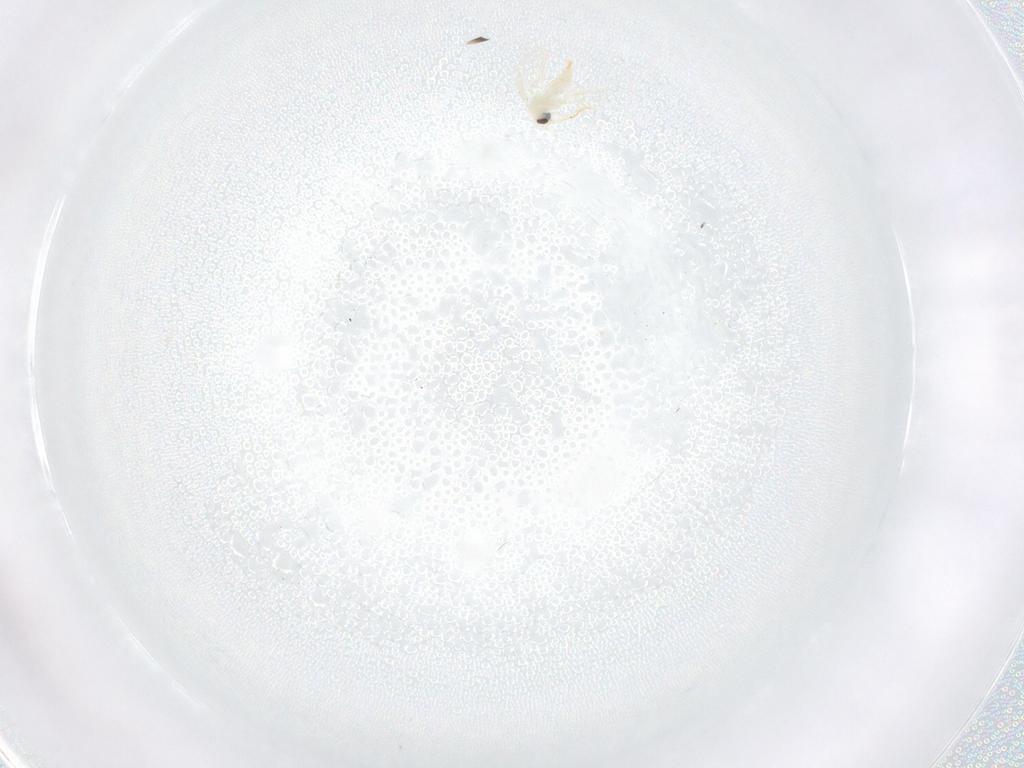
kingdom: Animalia
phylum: Arthropoda
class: Insecta
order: Hemiptera
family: Aleyrodidae
